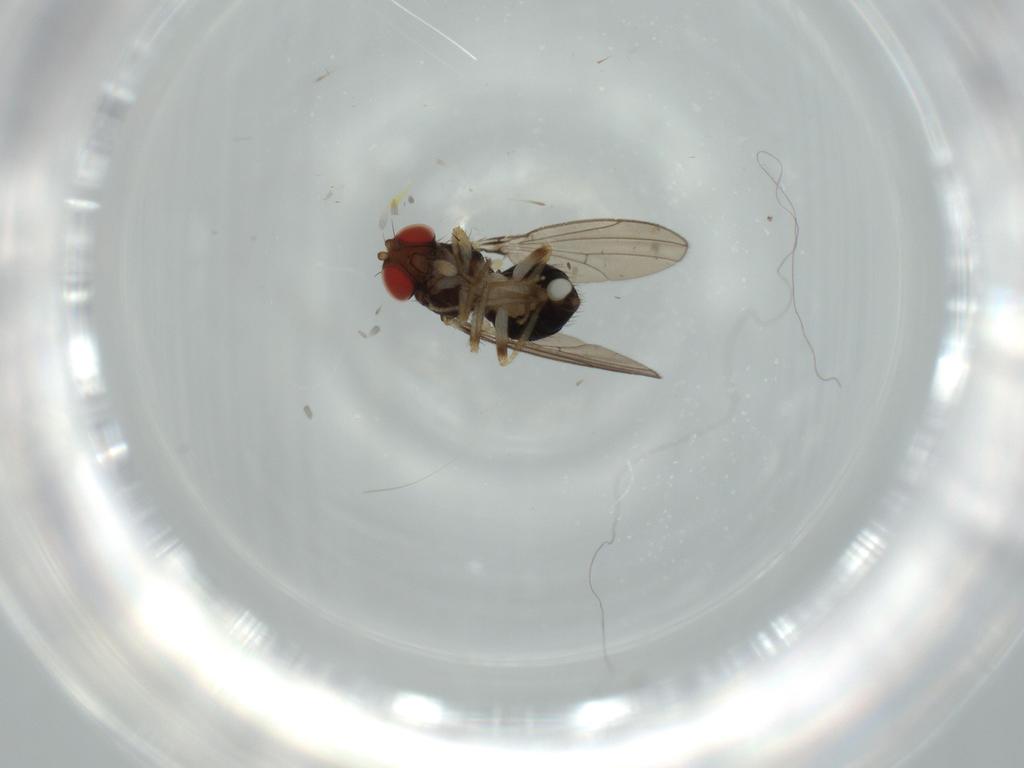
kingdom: Animalia
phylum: Arthropoda
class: Insecta
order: Diptera
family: Drosophilidae
